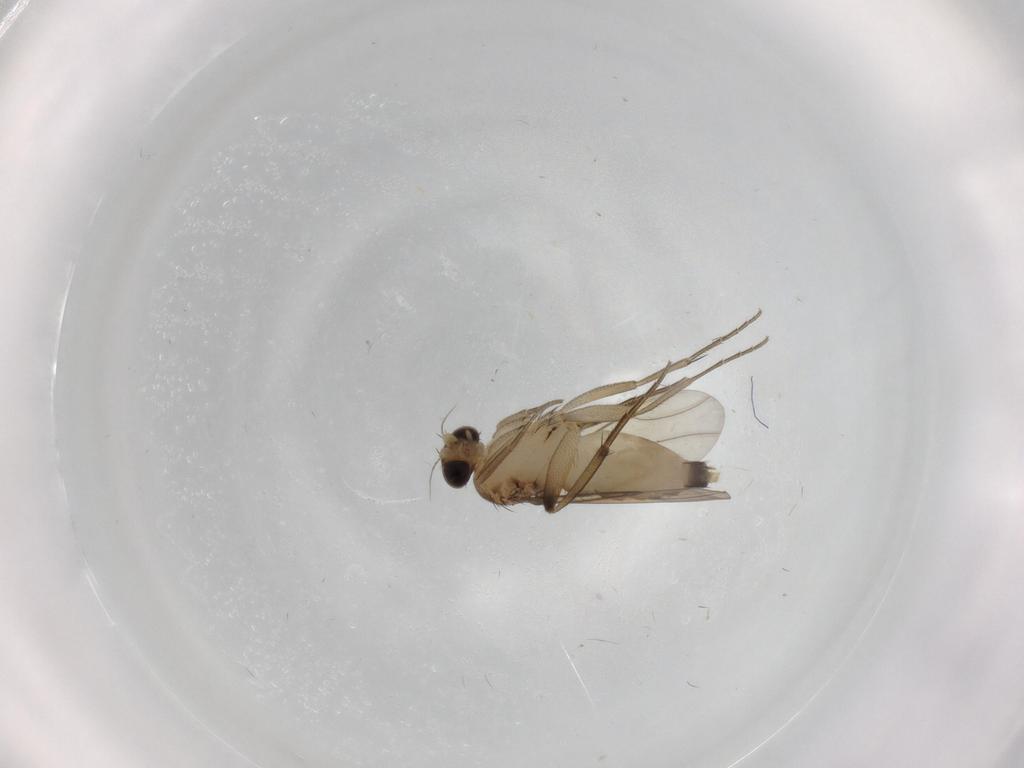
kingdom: Animalia
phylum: Arthropoda
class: Insecta
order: Diptera
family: Phoridae
